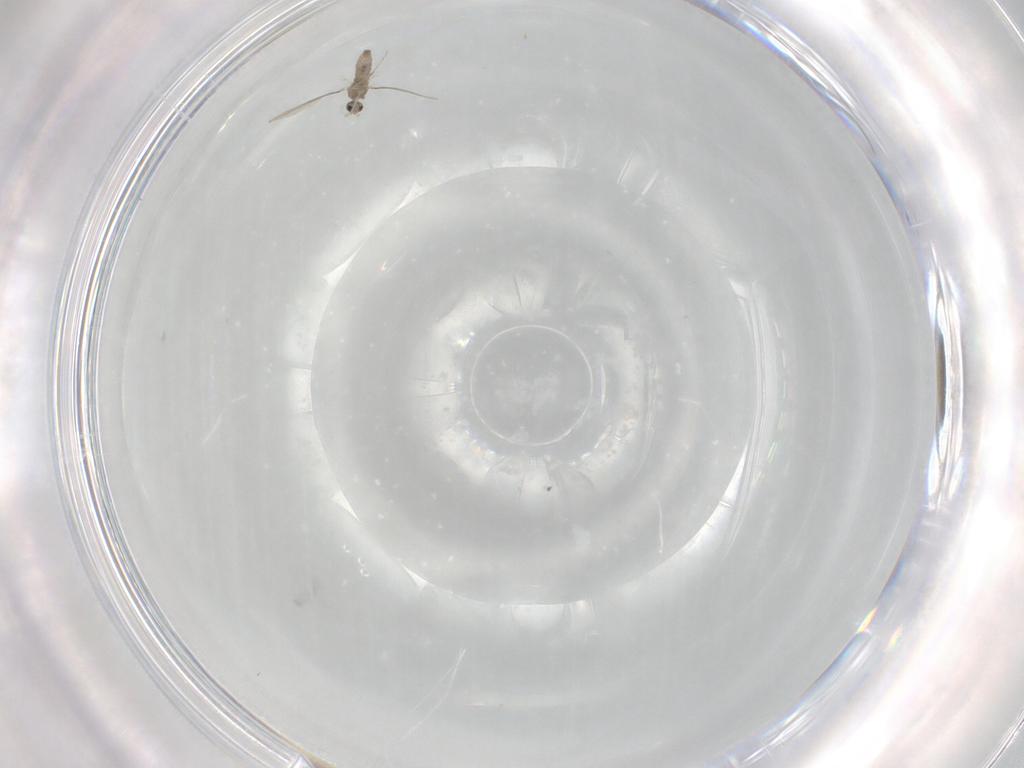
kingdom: Animalia
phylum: Arthropoda
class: Insecta
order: Diptera
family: Cecidomyiidae
